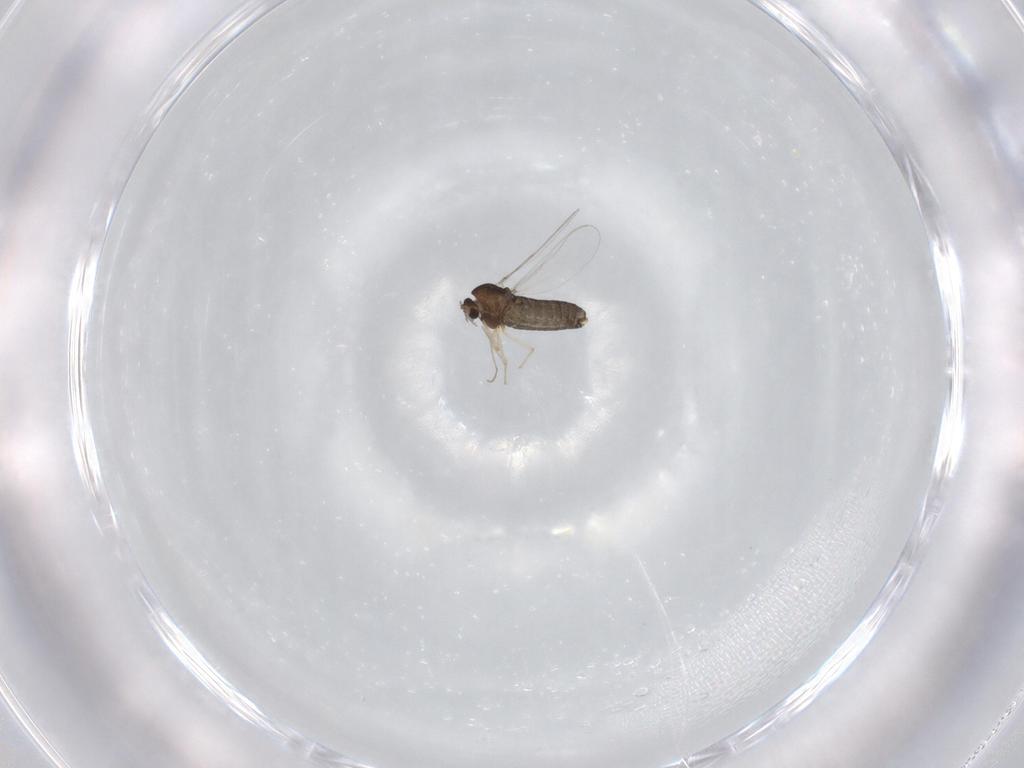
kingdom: Animalia
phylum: Arthropoda
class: Insecta
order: Diptera
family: Chironomidae
